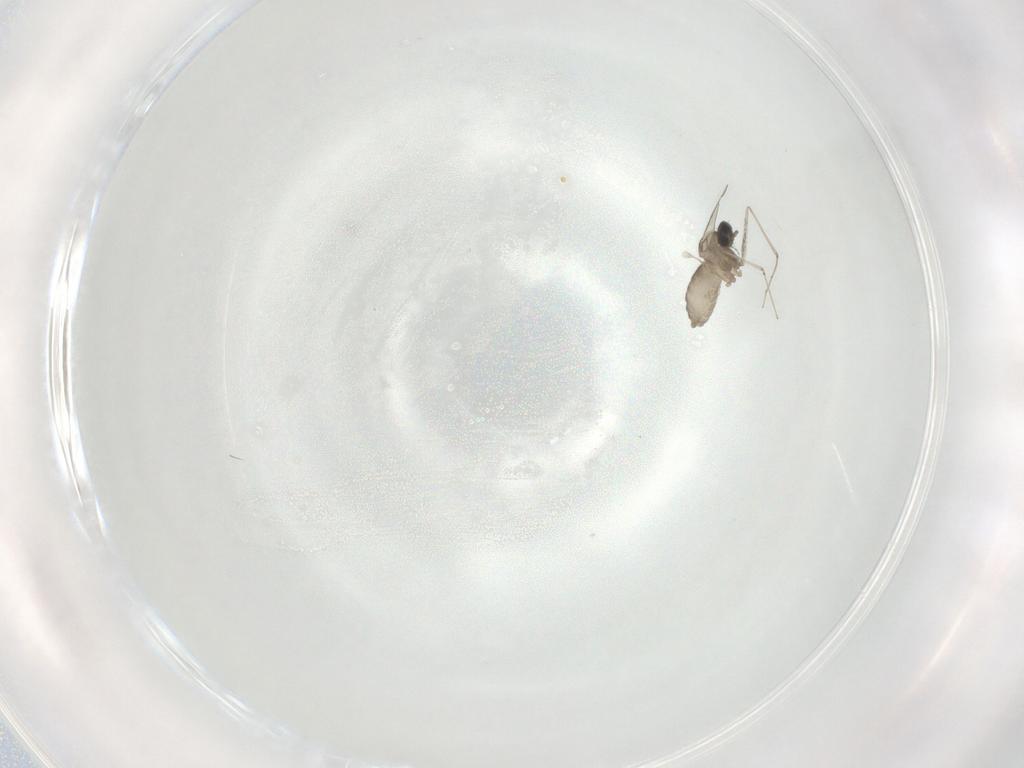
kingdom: Animalia
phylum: Arthropoda
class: Insecta
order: Diptera
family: Cecidomyiidae
